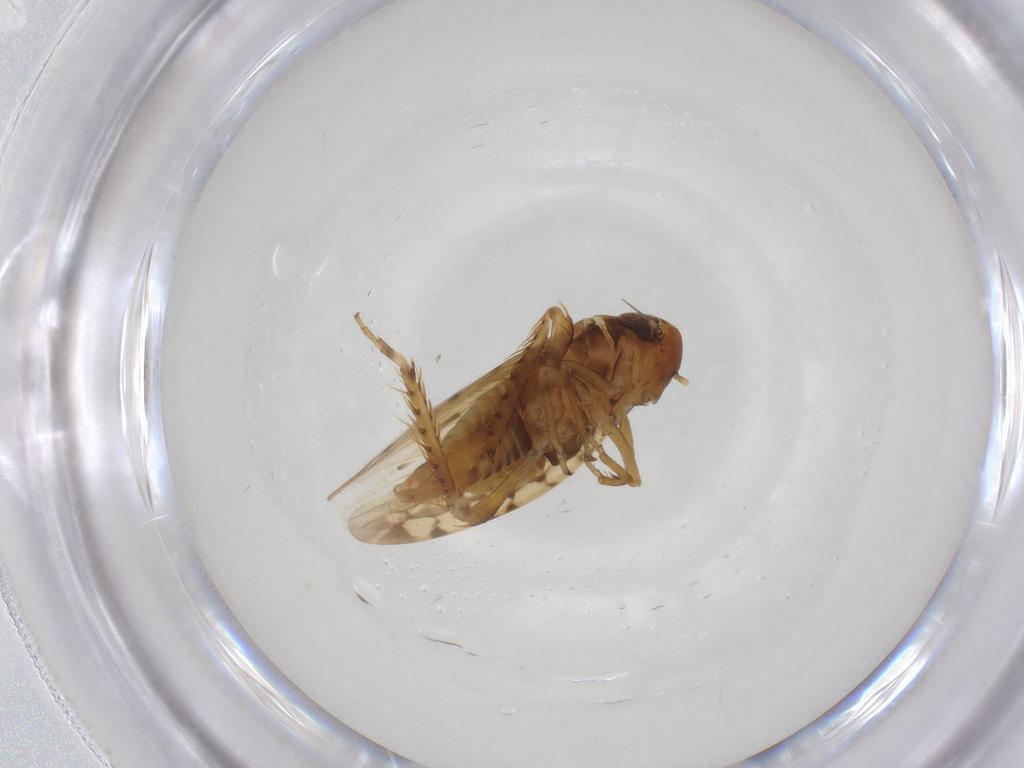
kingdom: Animalia
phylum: Arthropoda
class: Insecta
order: Hemiptera
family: Cicadellidae
